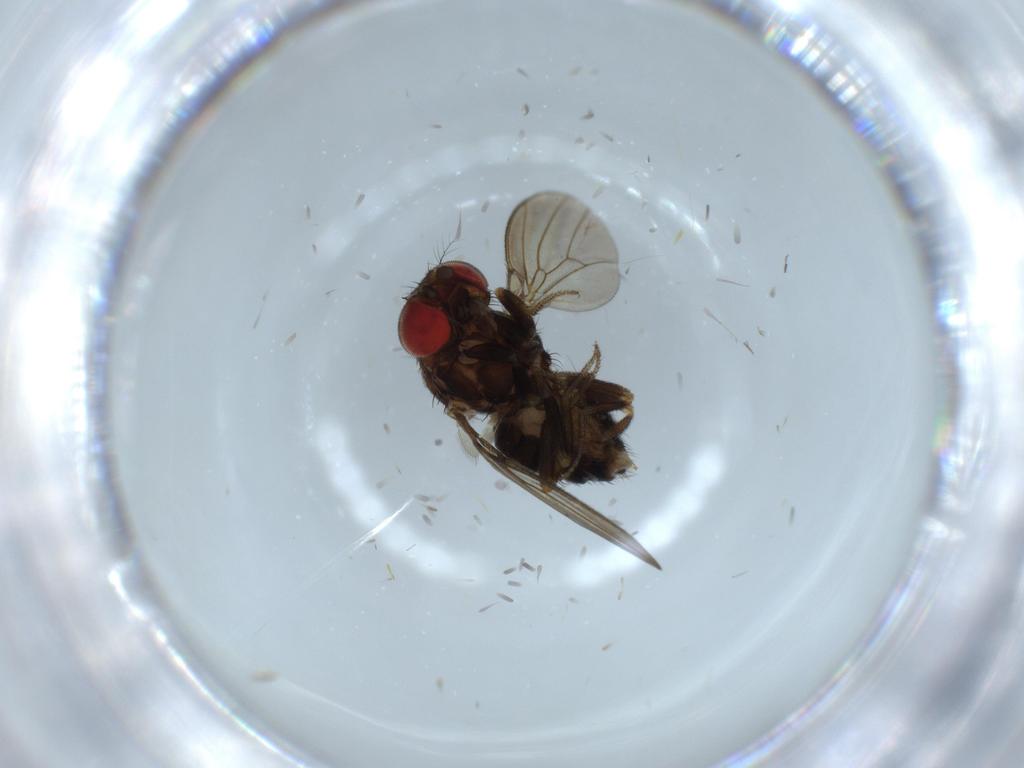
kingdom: Animalia
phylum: Arthropoda
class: Insecta
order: Diptera
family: Drosophilidae
